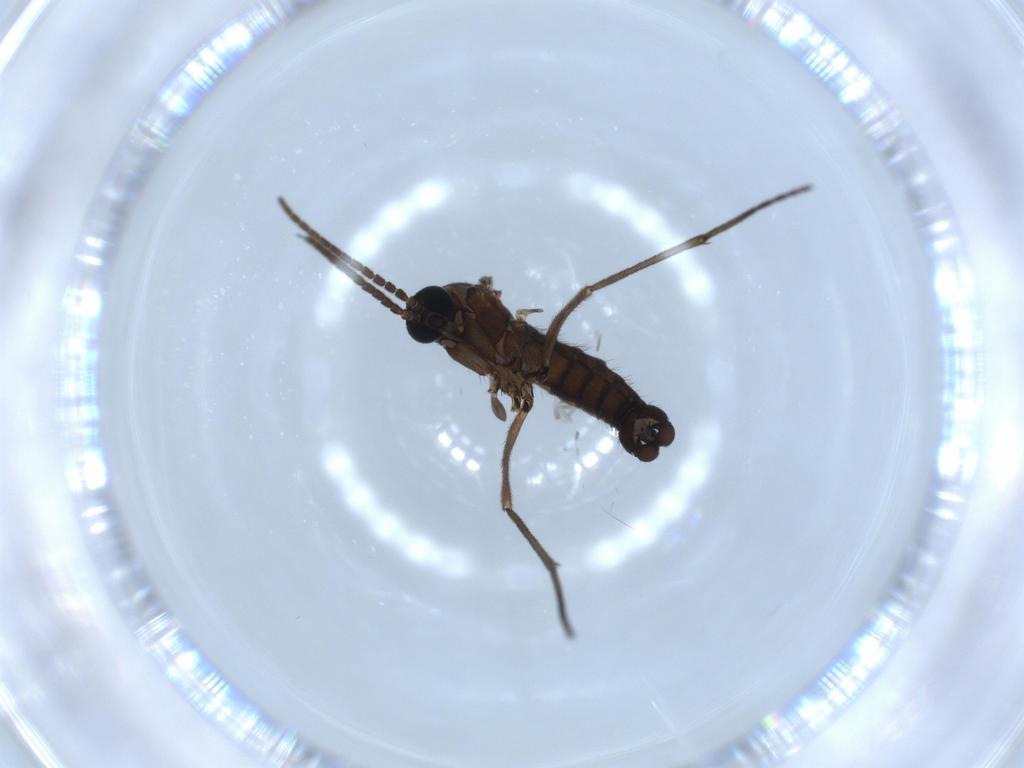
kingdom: Animalia
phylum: Arthropoda
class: Insecta
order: Diptera
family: Sciaridae
